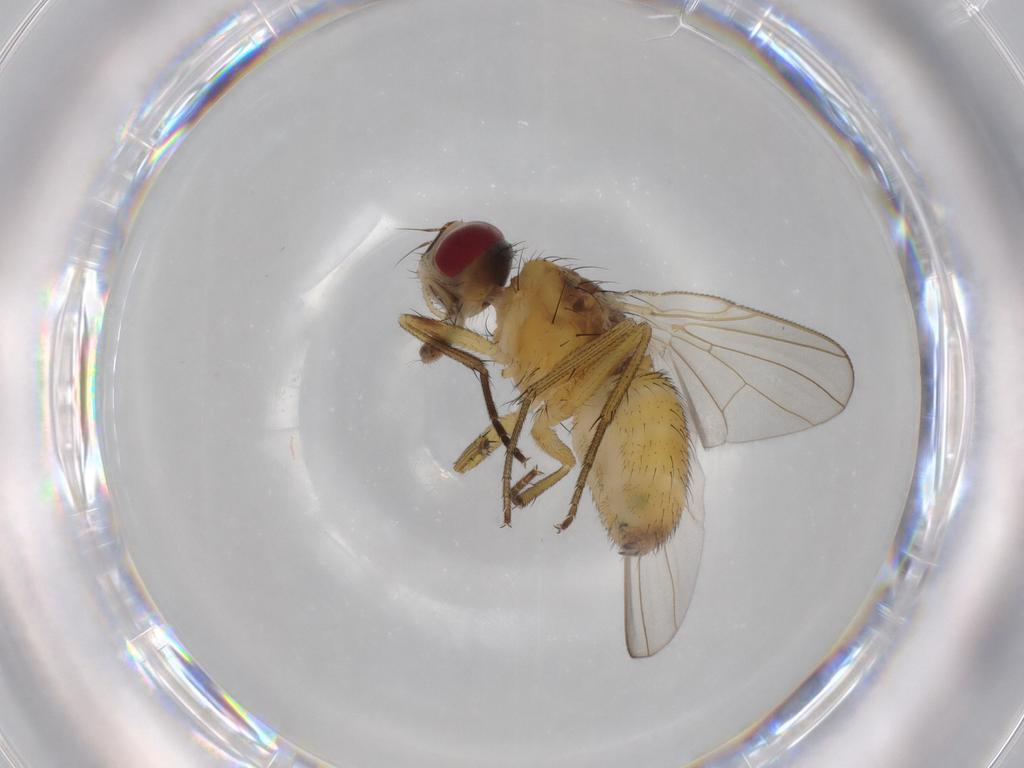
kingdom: Animalia
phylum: Arthropoda
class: Insecta
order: Diptera
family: Muscidae
